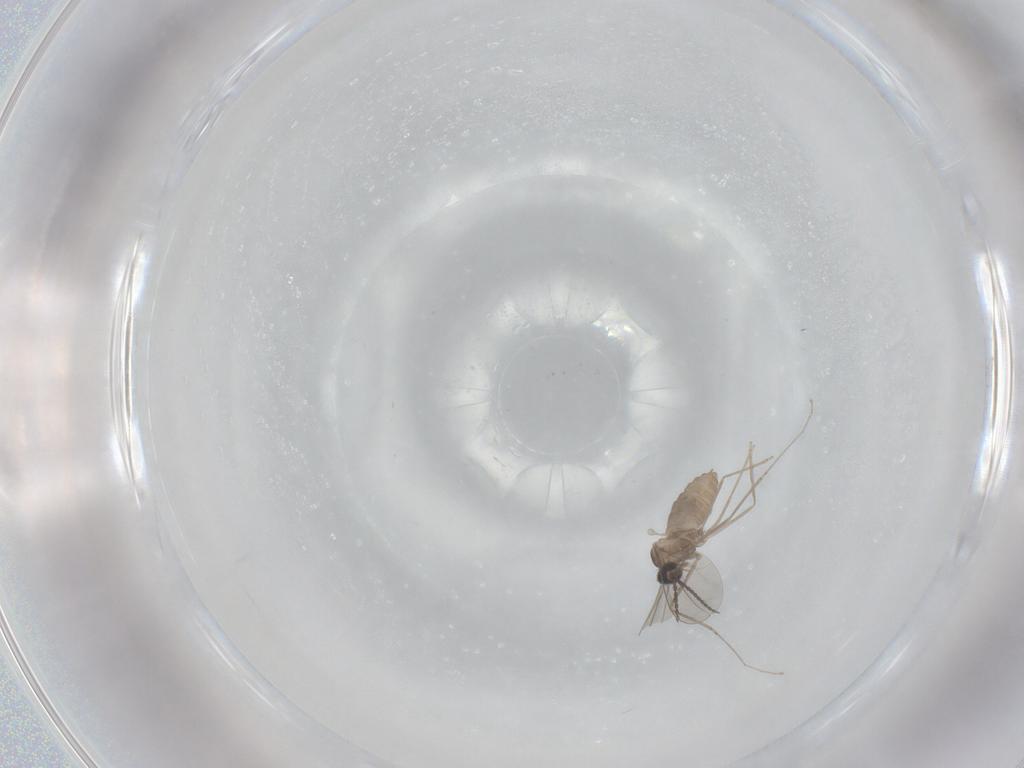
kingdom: Animalia
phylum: Arthropoda
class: Insecta
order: Diptera
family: Cecidomyiidae
